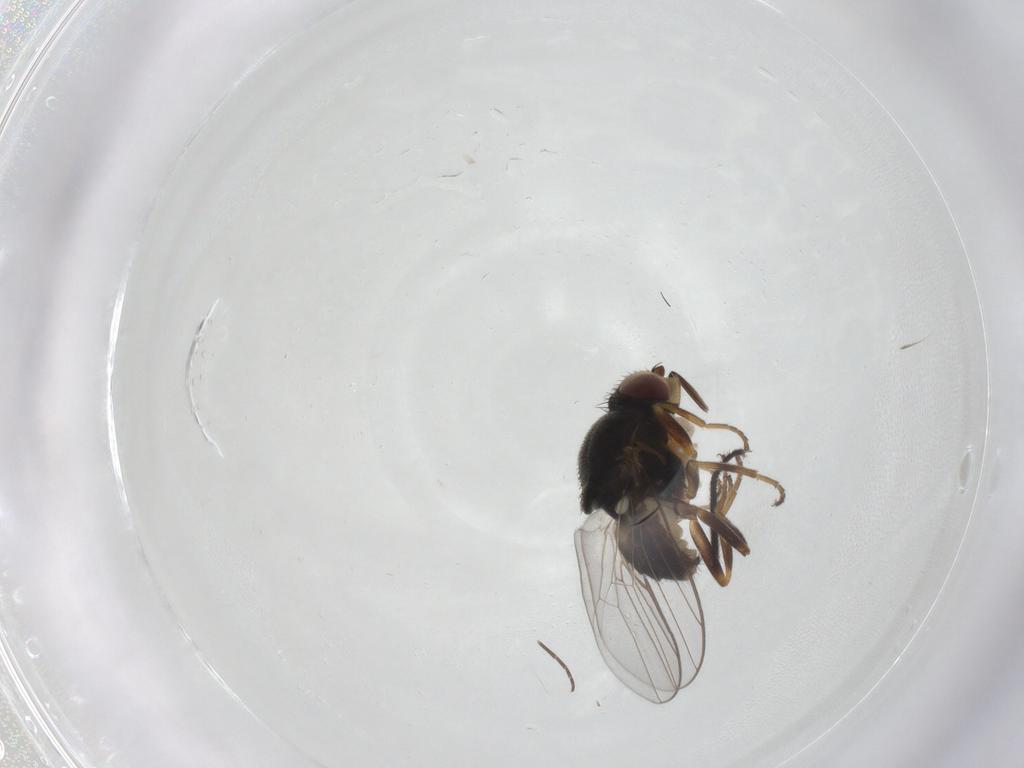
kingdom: Animalia
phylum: Arthropoda
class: Insecta
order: Diptera
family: Chloropidae
